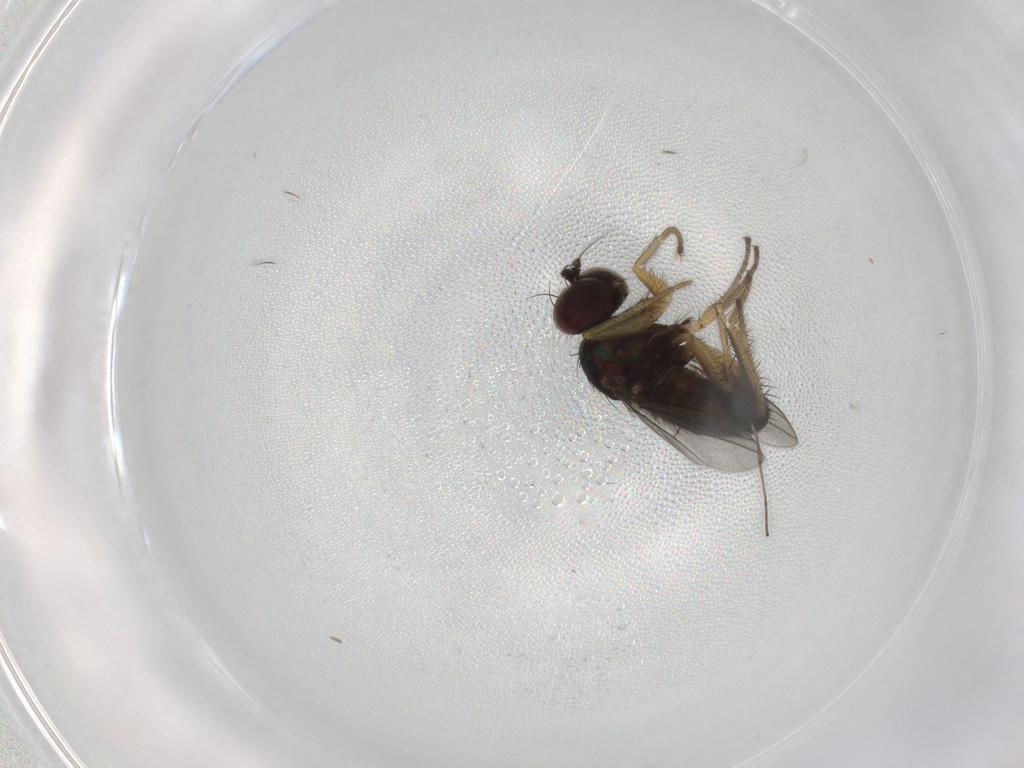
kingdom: Animalia
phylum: Arthropoda
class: Insecta
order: Diptera
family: Dolichopodidae
